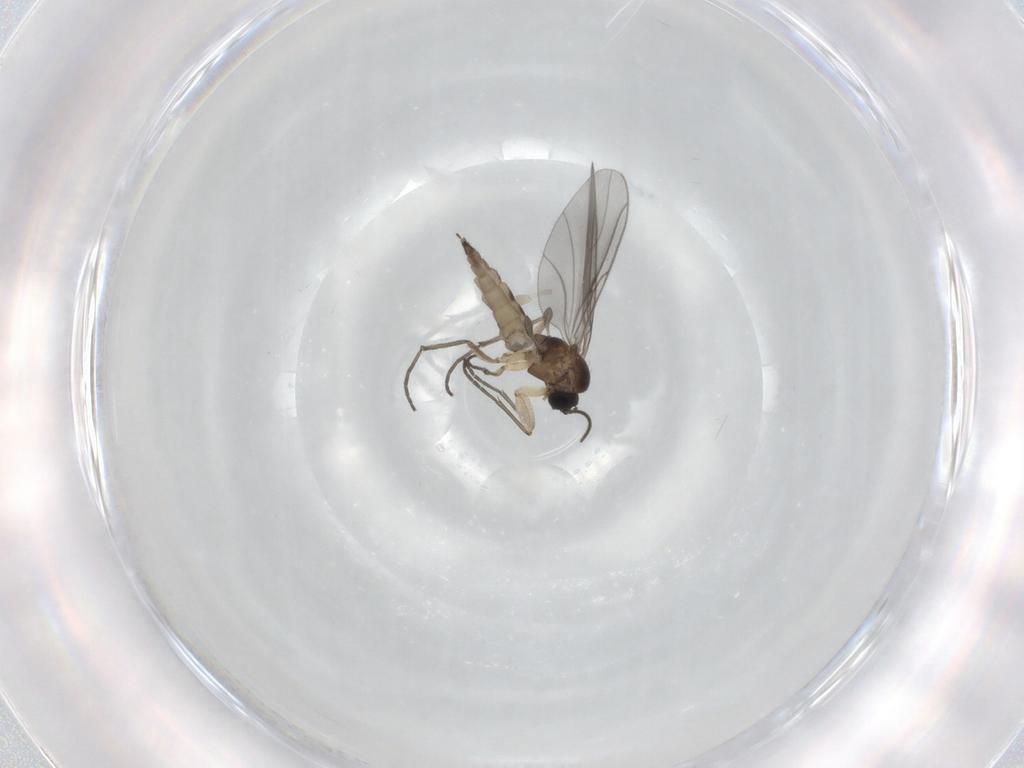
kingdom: Animalia
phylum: Arthropoda
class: Insecta
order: Diptera
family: Sciaridae
